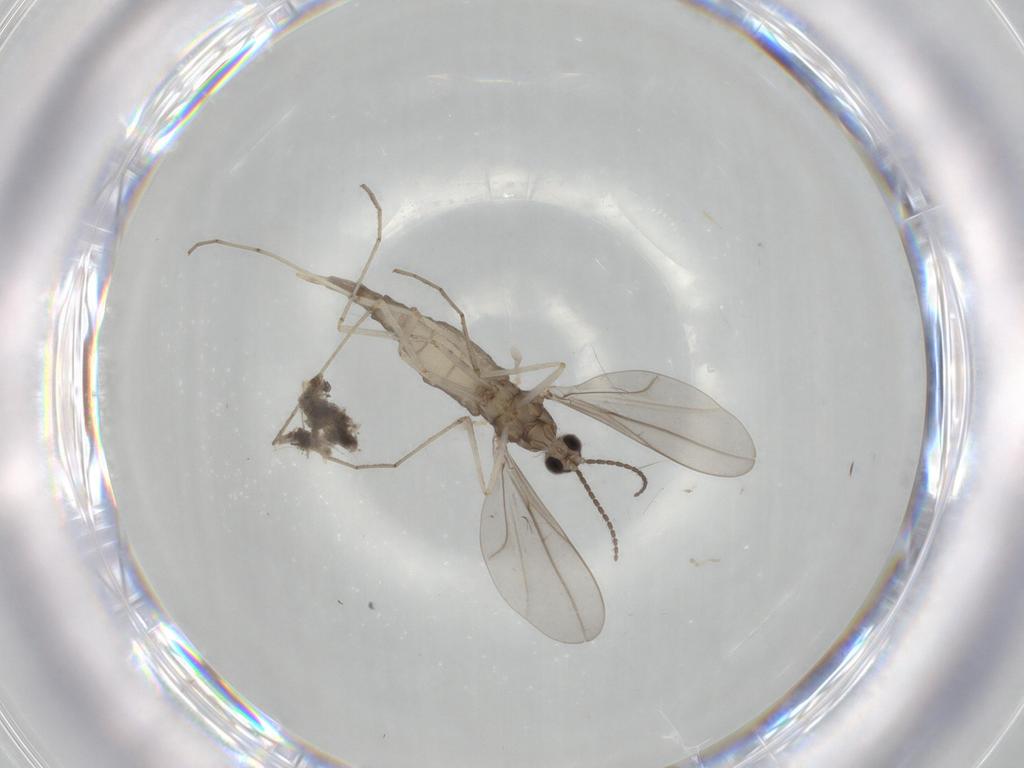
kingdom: Animalia
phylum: Arthropoda
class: Insecta
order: Diptera
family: Cecidomyiidae
